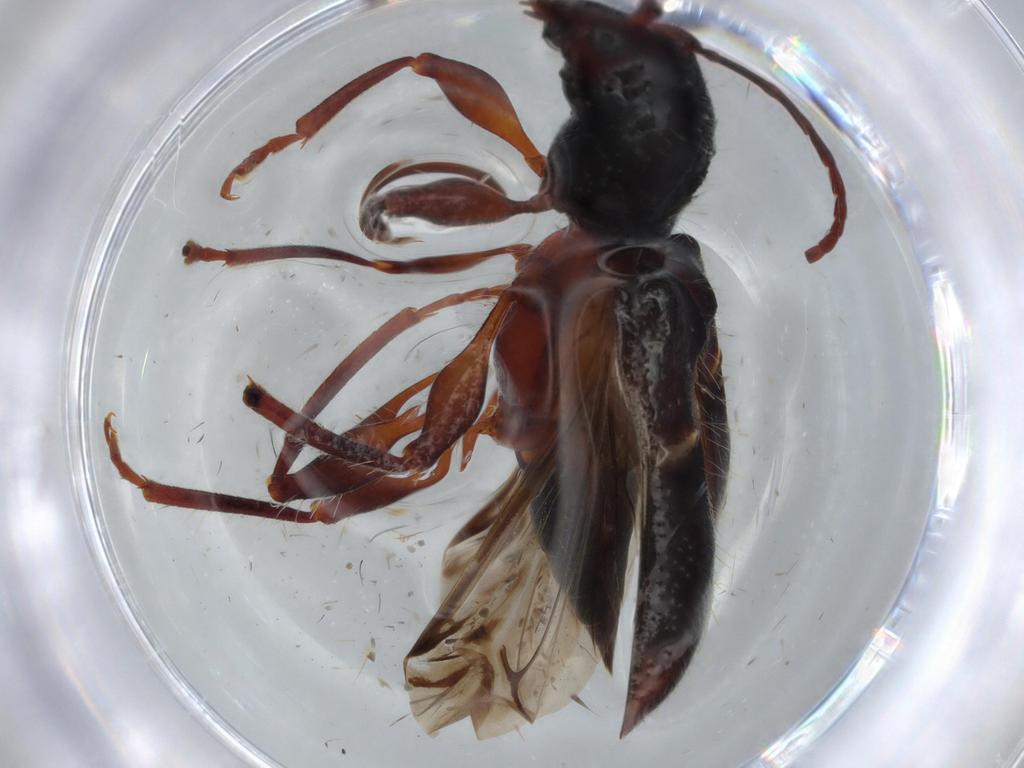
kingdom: Animalia
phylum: Arthropoda
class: Insecta
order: Coleoptera
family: Cerambycidae
